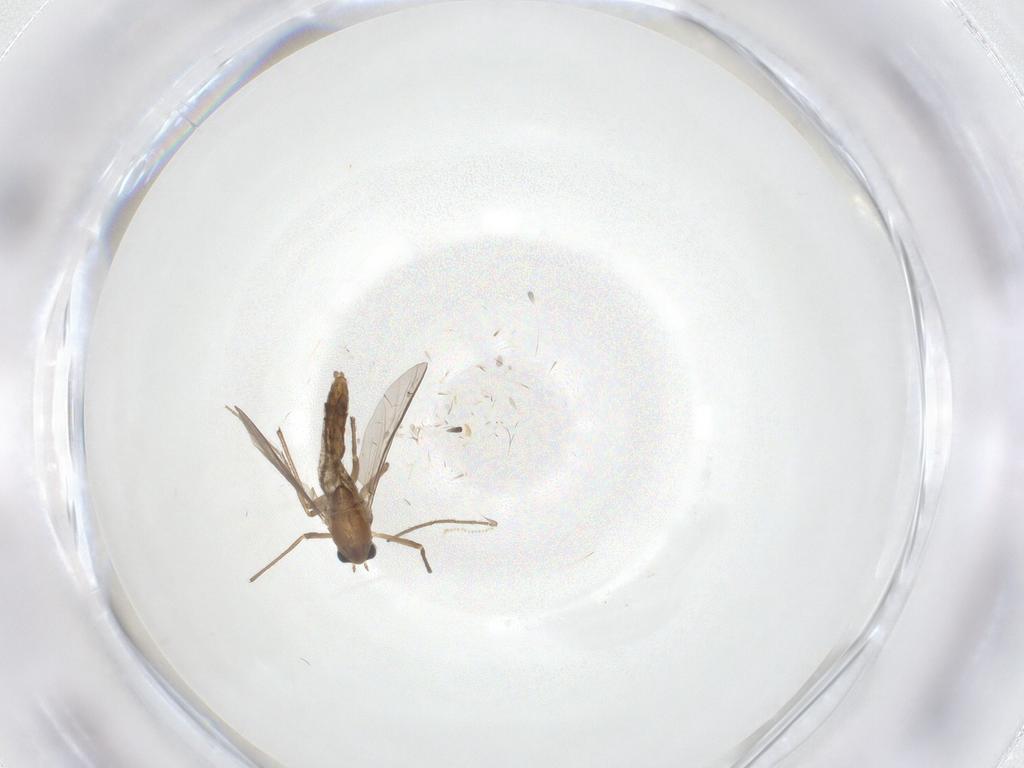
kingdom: Animalia
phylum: Arthropoda
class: Insecta
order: Diptera
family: Chironomidae
